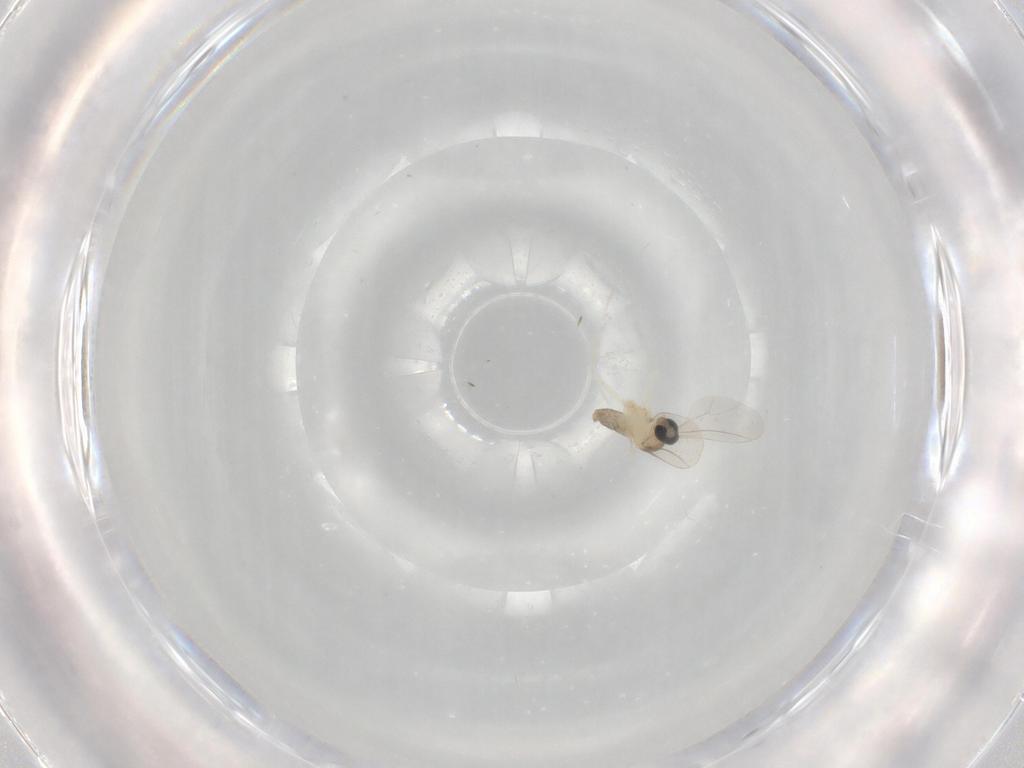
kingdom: Animalia
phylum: Arthropoda
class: Insecta
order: Diptera
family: Cecidomyiidae
